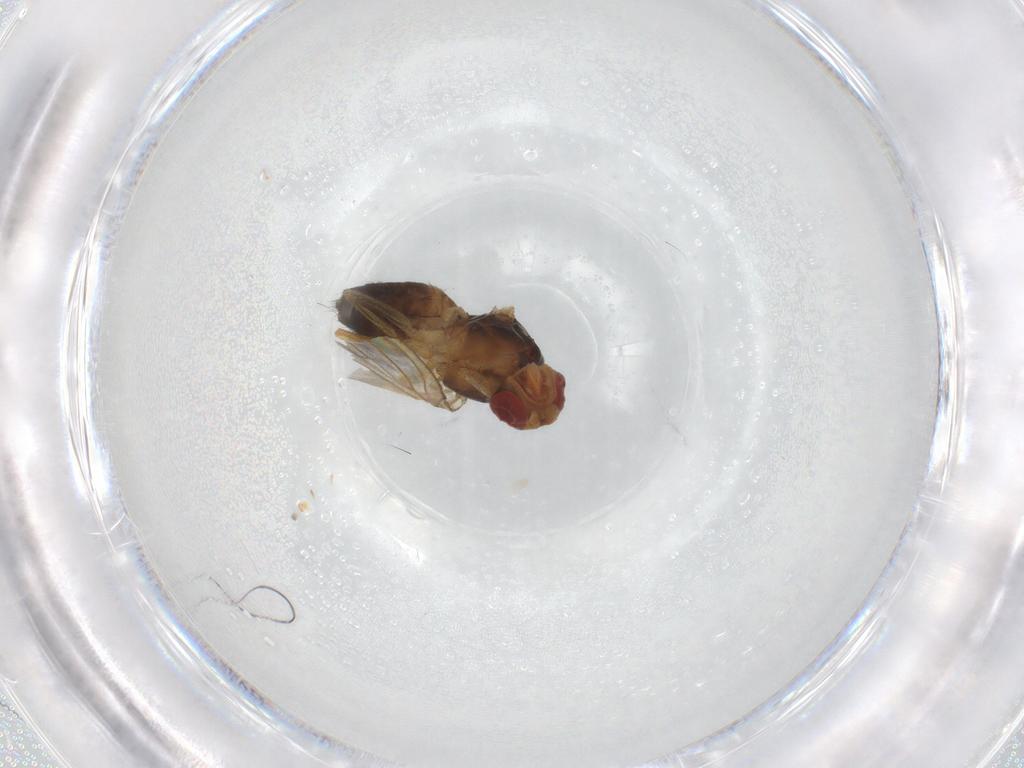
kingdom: Animalia
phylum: Arthropoda
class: Insecta
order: Diptera
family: Drosophilidae
